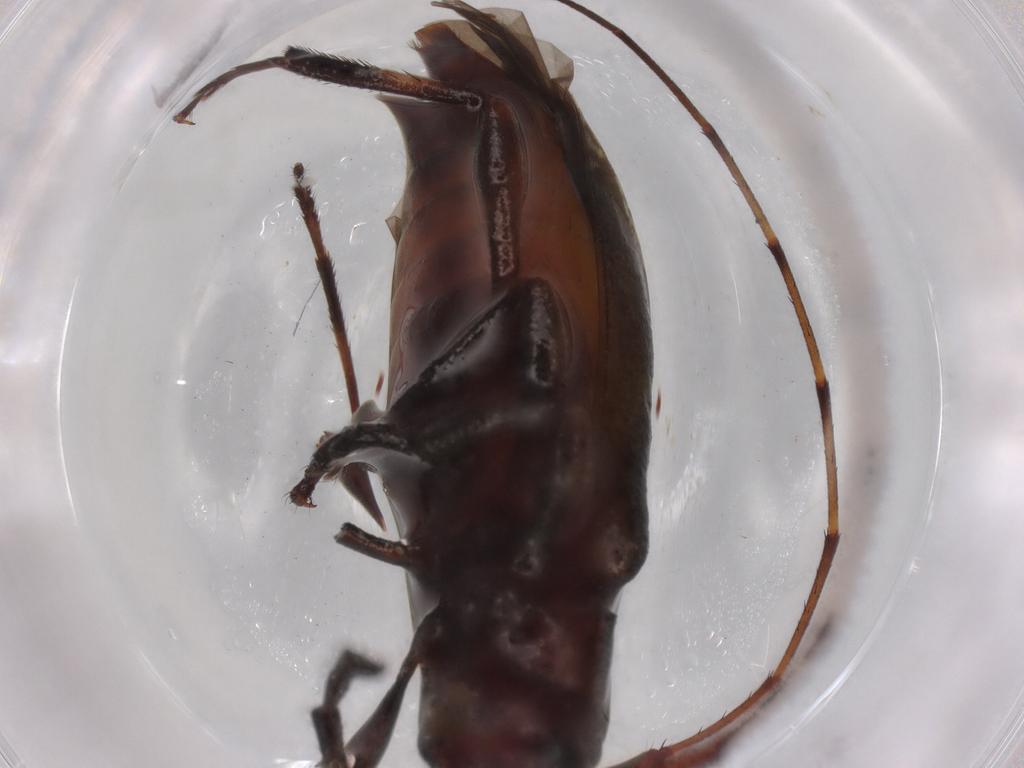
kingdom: Animalia
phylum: Arthropoda
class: Insecta
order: Coleoptera
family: Cerambycidae
